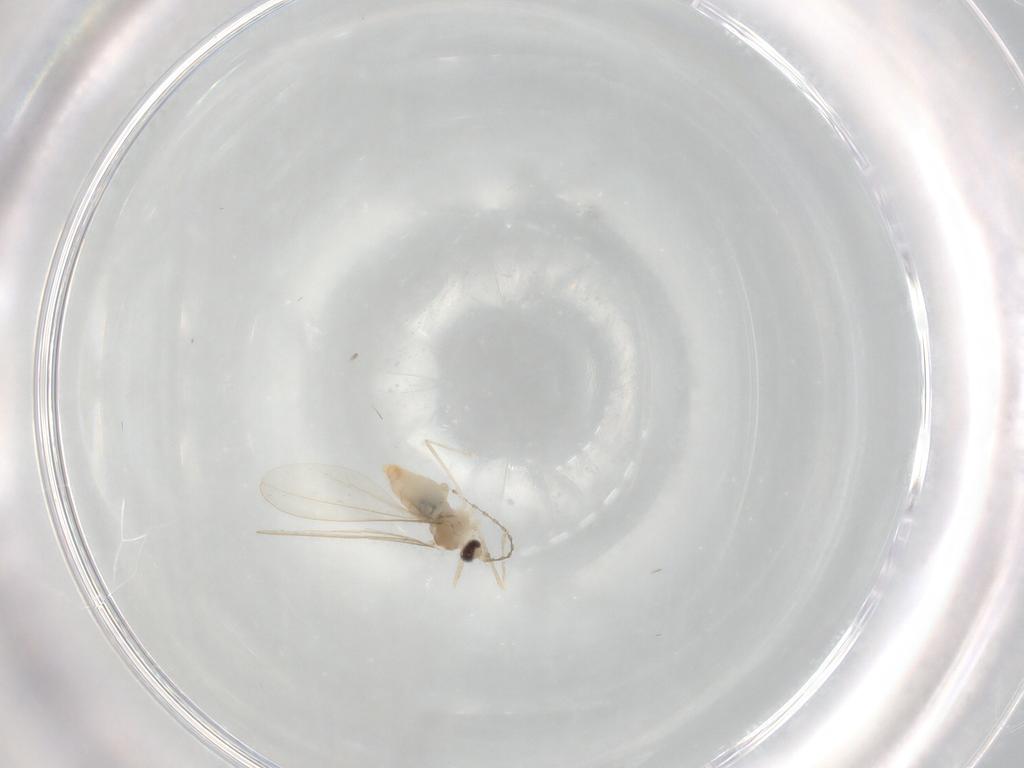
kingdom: Animalia
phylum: Arthropoda
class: Insecta
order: Diptera
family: Cecidomyiidae
